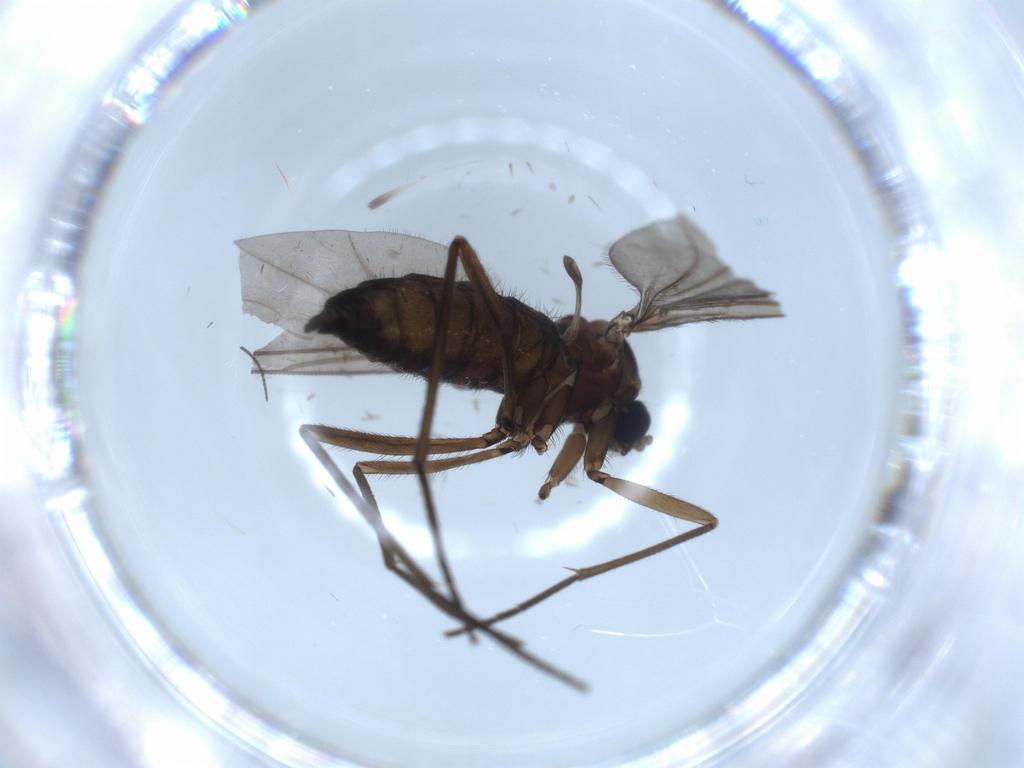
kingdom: Animalia
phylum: Arthropoda
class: Insecta
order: Diptera
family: Sciaridae
